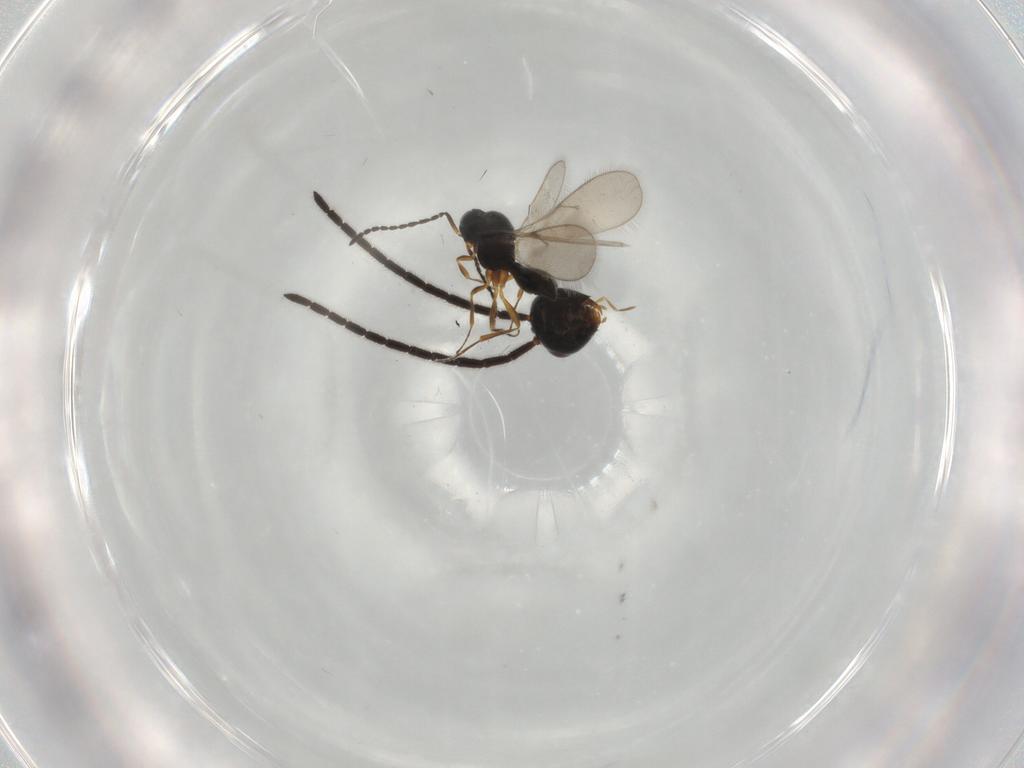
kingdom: Animalia
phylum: Arthropoda
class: Insecta
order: Hymenoptera
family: Scelionidae
